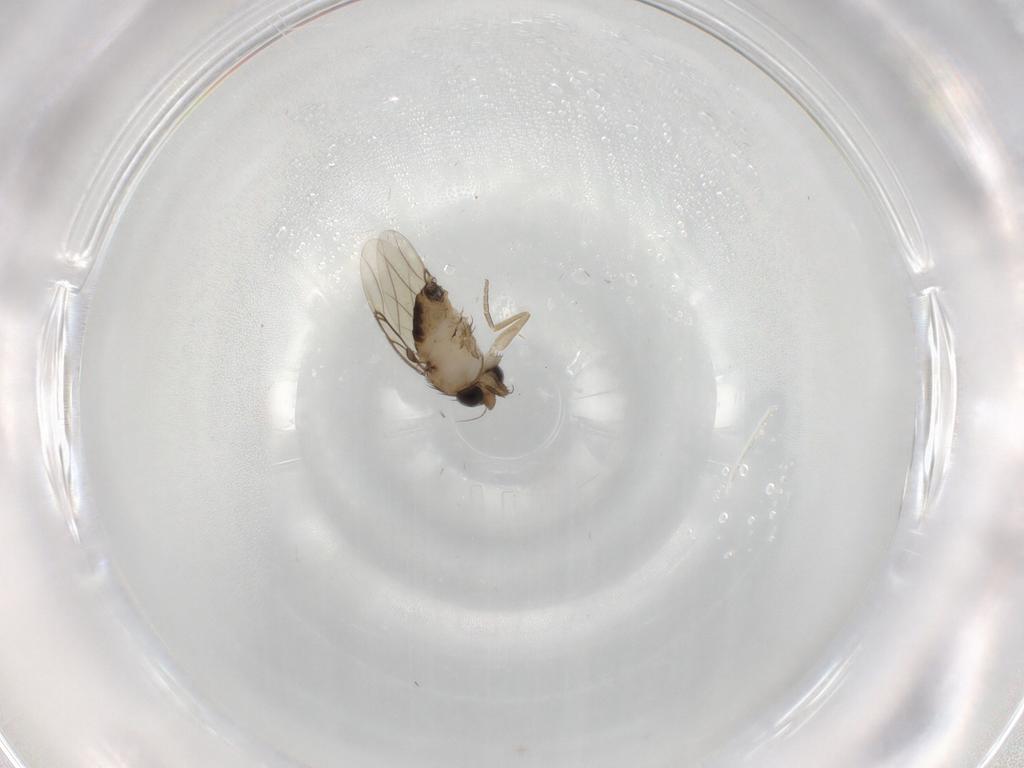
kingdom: Animalia
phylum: Arthropoda
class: Insecta
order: Diptera
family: Phoridae
